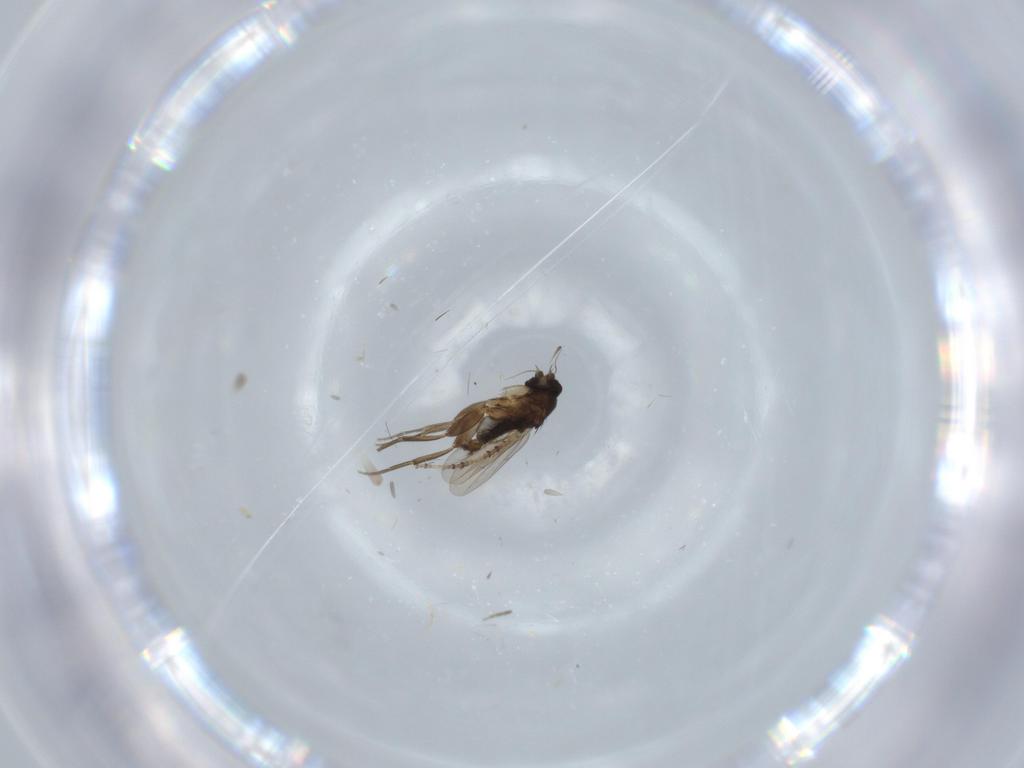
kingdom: Animalia
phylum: Arthropoda
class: Insecta
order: Diptera
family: Phoridae
